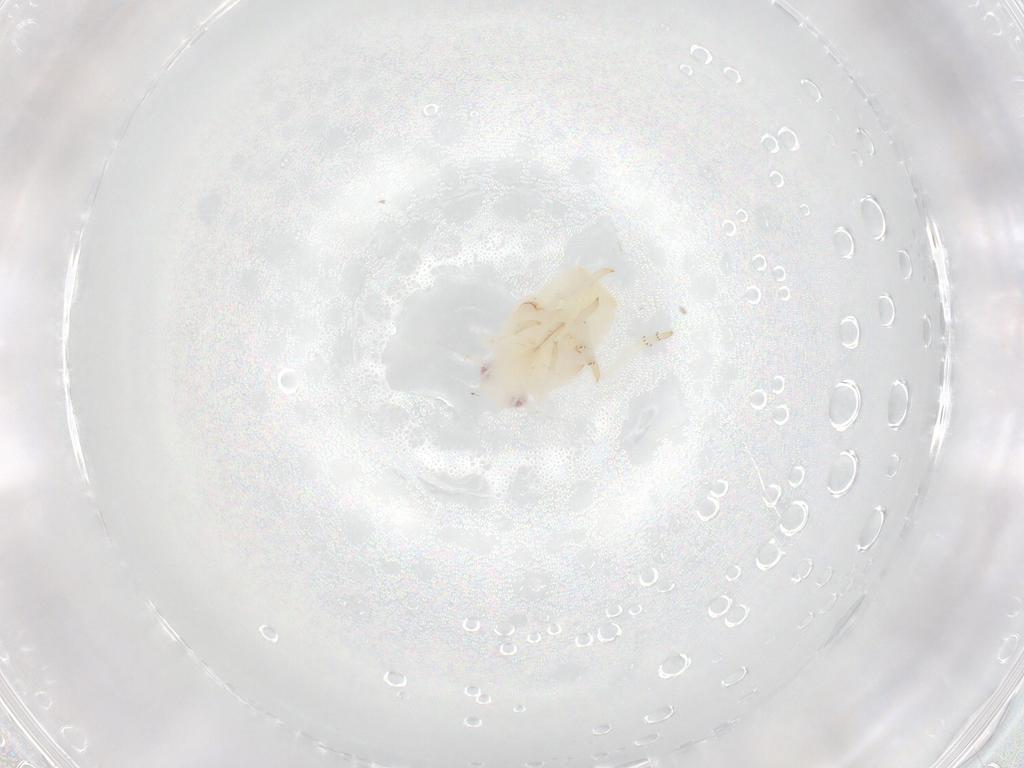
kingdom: Animalia
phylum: Arthropoda
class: Insecta
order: Hemiptera
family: Flatidae
